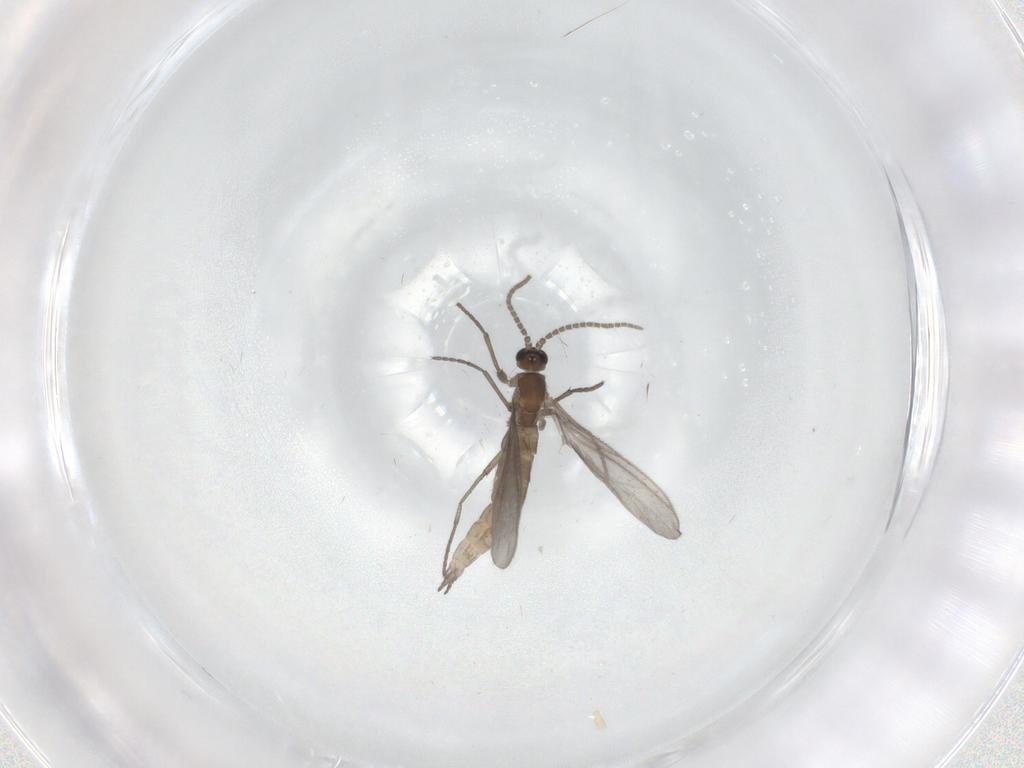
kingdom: Animalia
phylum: Arthropoda
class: Insecta
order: Diptera
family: Sciaridae
